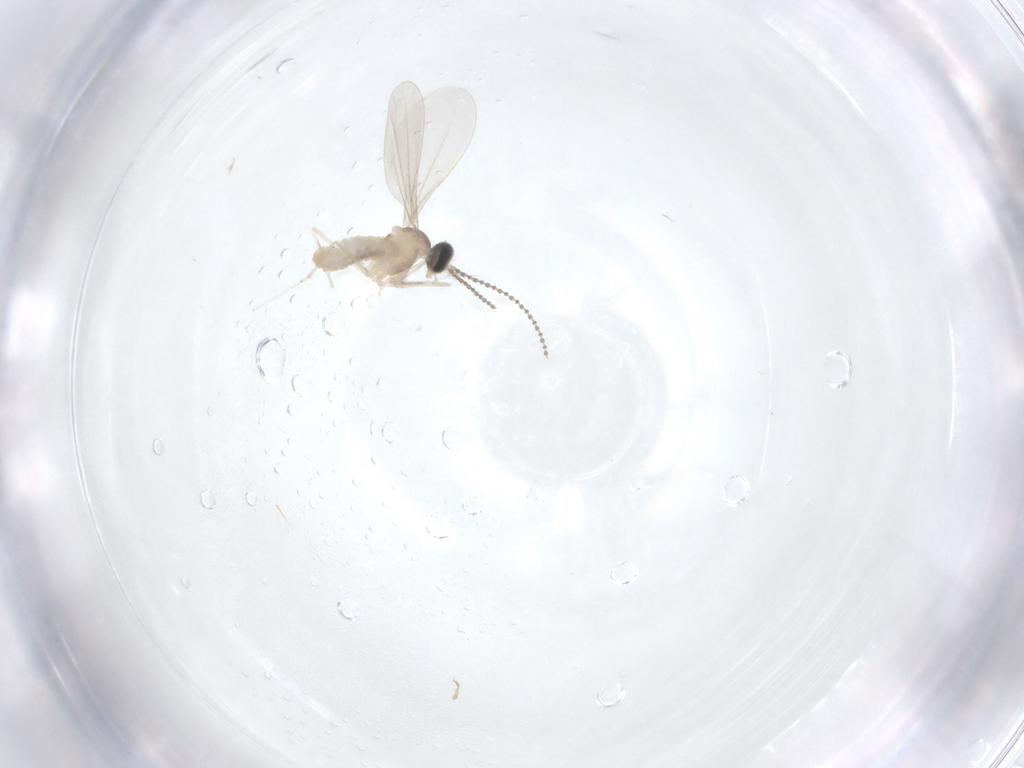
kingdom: Animalia
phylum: Arthropoda
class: Insecta
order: Diptera
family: Cecidomyiidae
